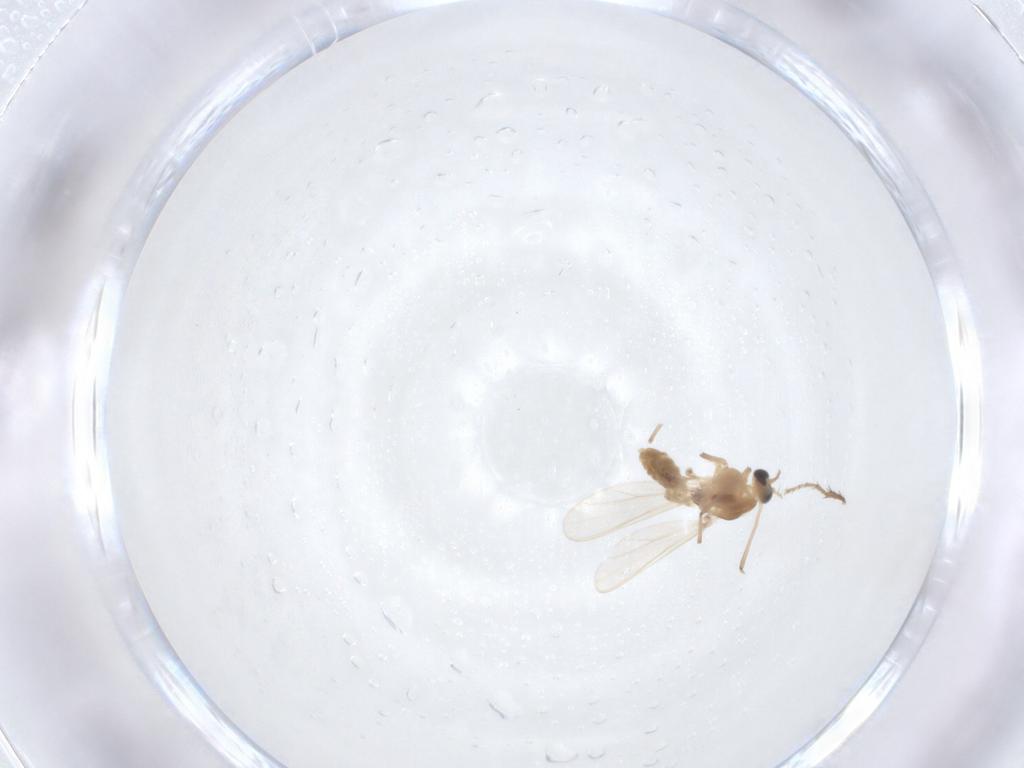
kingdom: Animalia
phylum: Arthropoda
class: Insecta
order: Diptera
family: Chironomidae
